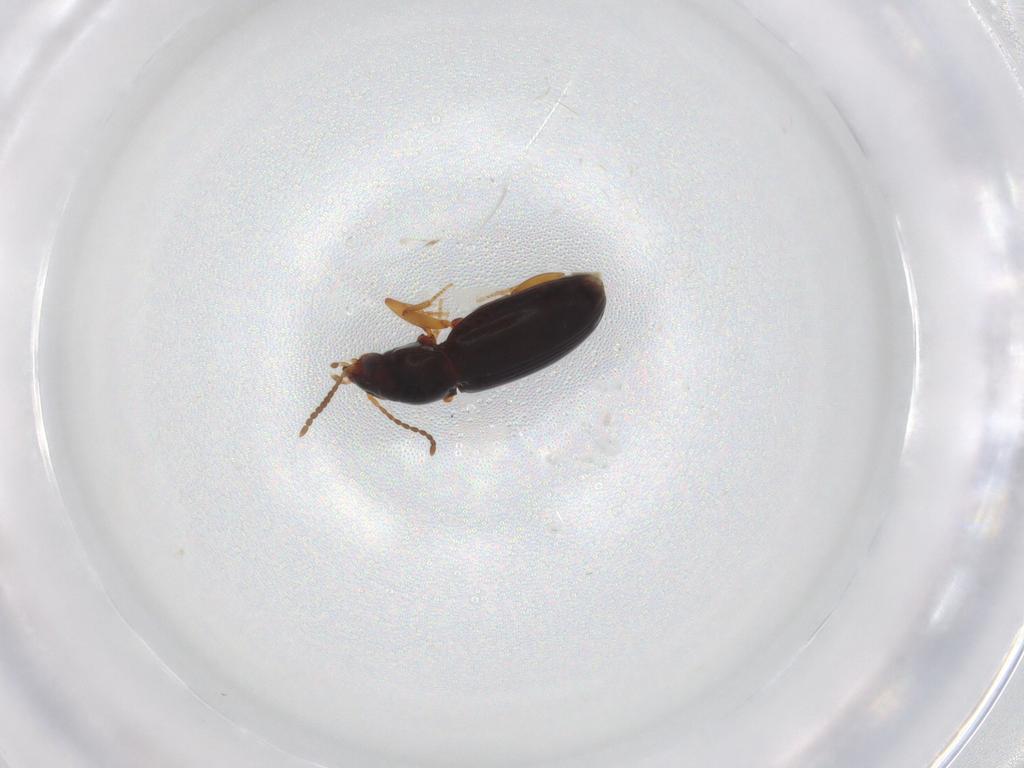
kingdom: Animalia
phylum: Arthropoda
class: Insecta
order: Coleoptera
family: Carabidae
